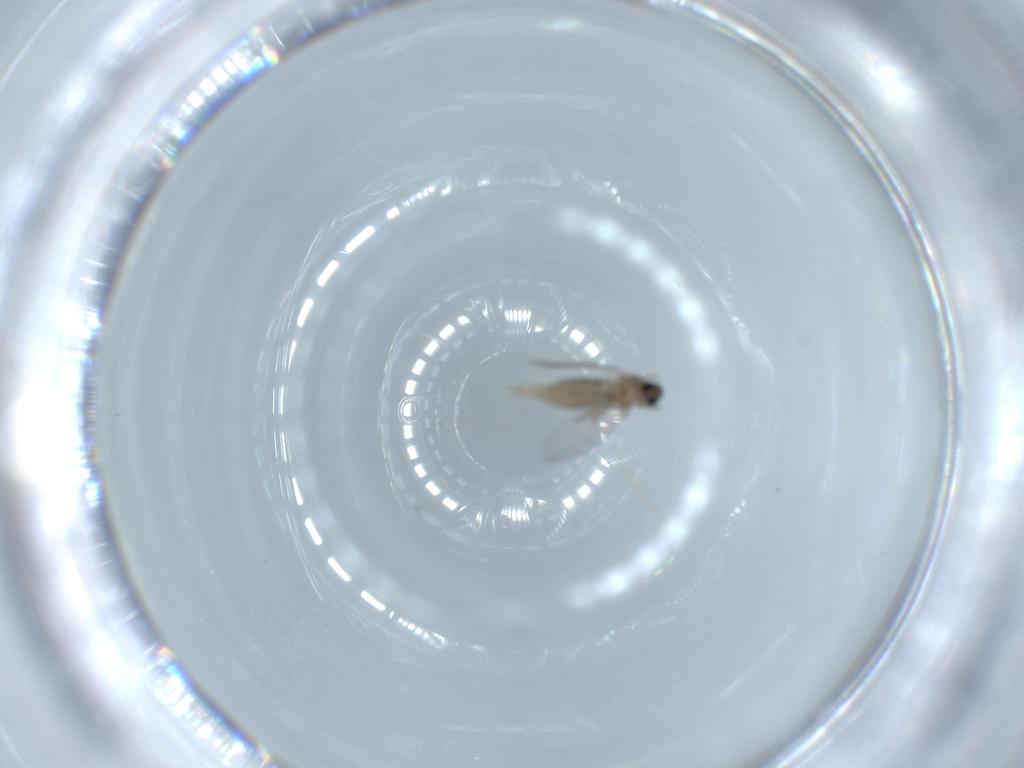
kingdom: Animalia
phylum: Arthropoda
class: Insecta
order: Diptera
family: Cecidomyiidae
